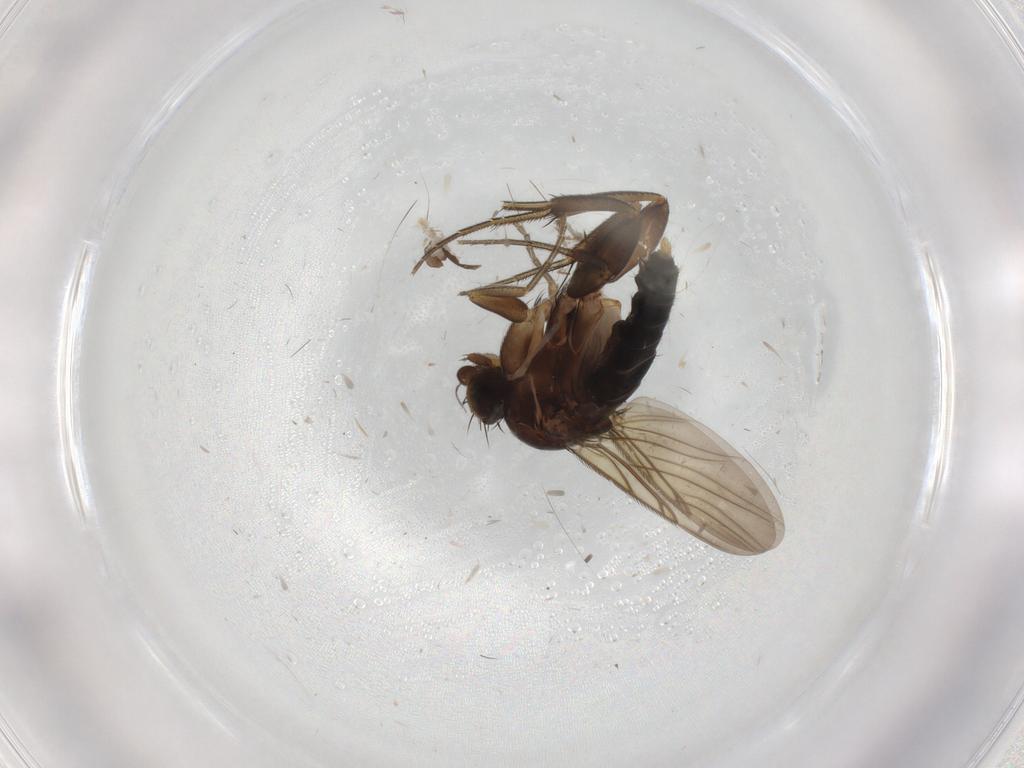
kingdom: Animalia
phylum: Arthropoda
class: Insecta
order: Diptera
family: Phoridae
